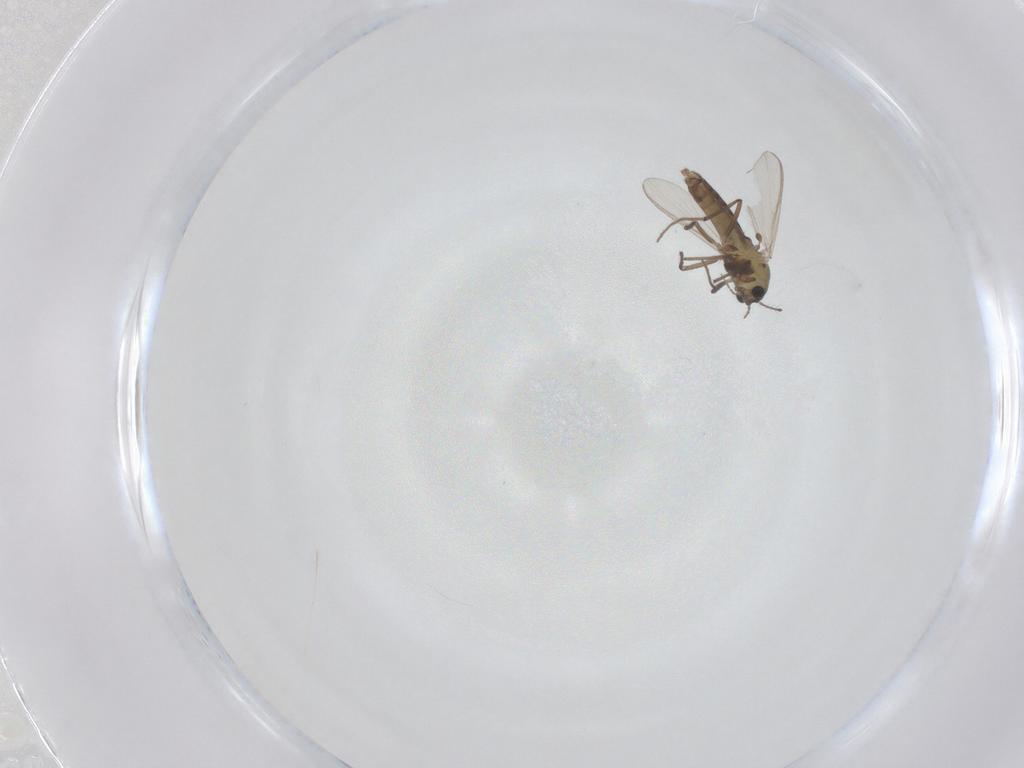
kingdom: Animalia
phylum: Arthropoda
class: Insecta
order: Diptera
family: Chironomidae
